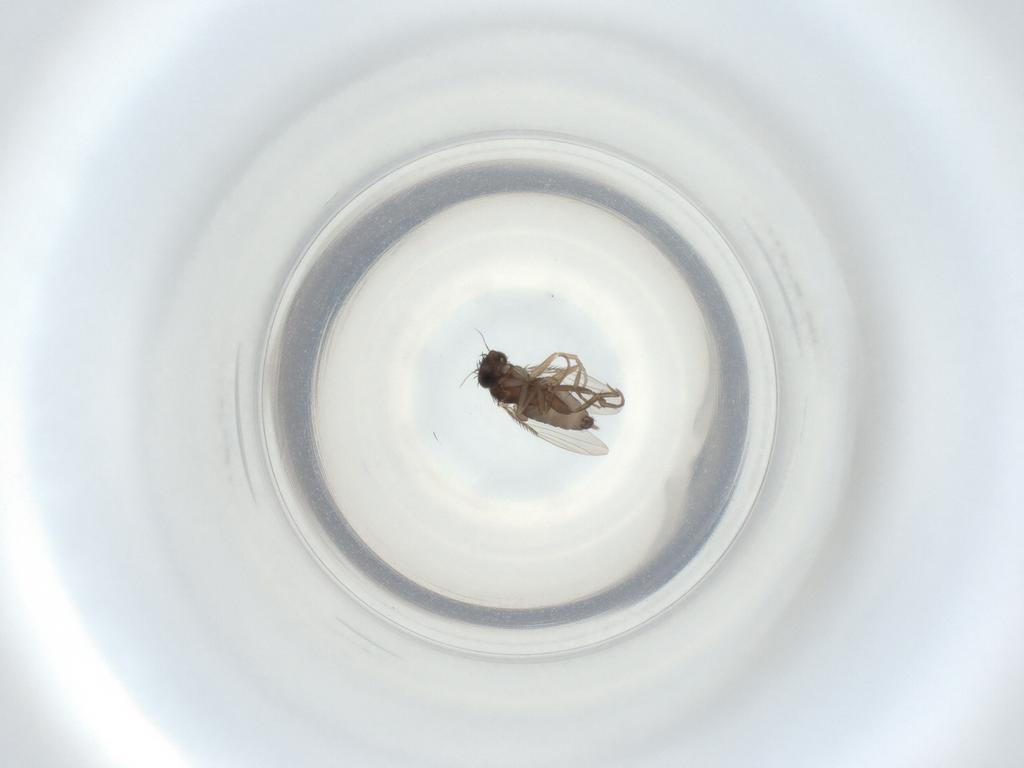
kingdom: Animalia
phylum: Arthropoda
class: Insecta
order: Diptera
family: Phoridae
